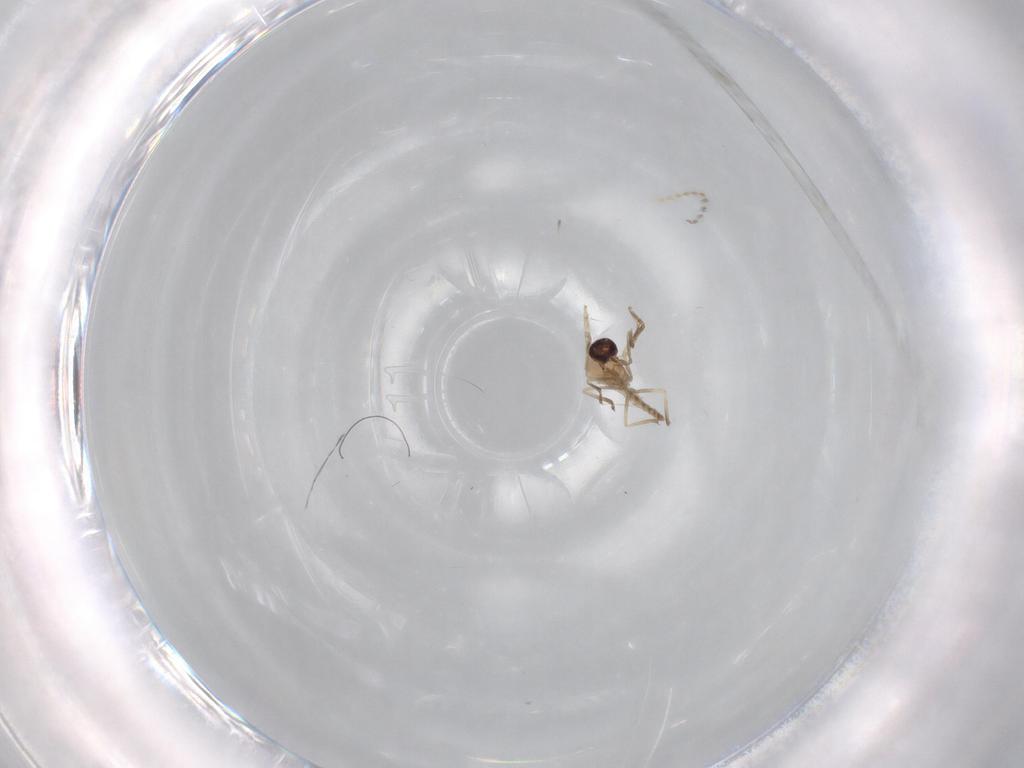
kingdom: Animalia
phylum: Arthropoda
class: Insecta
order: Diptera
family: Cecidomyiidae
